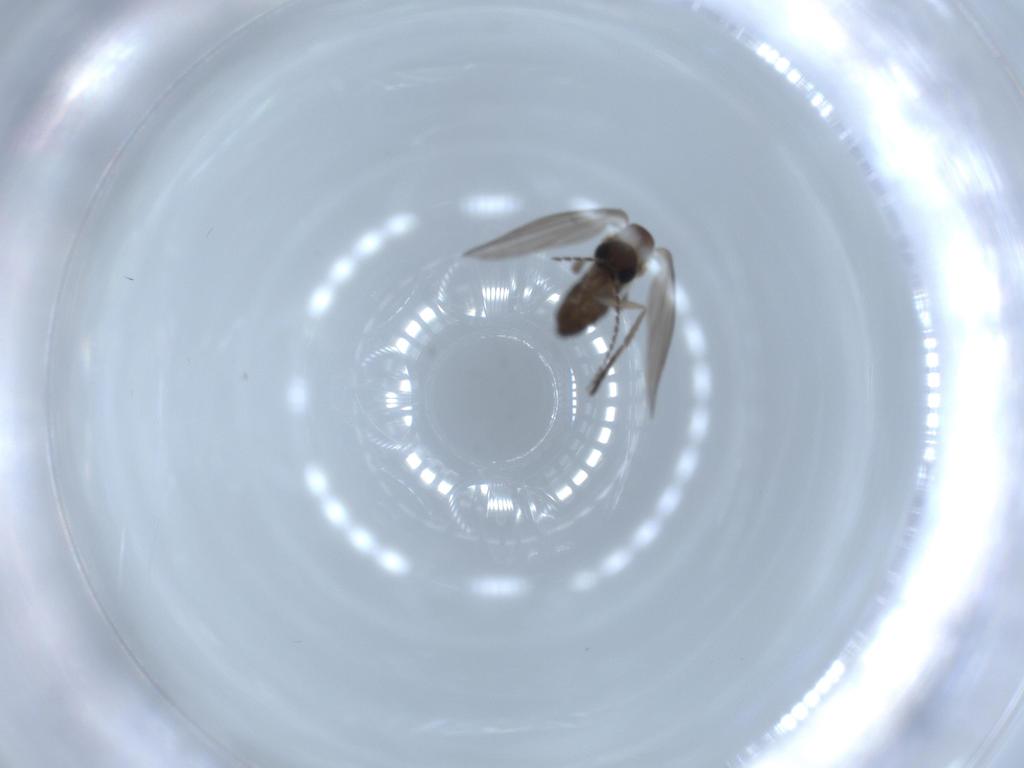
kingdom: Animalia
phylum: Arthropoda
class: Insecta
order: Diptera
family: Psychodidae
